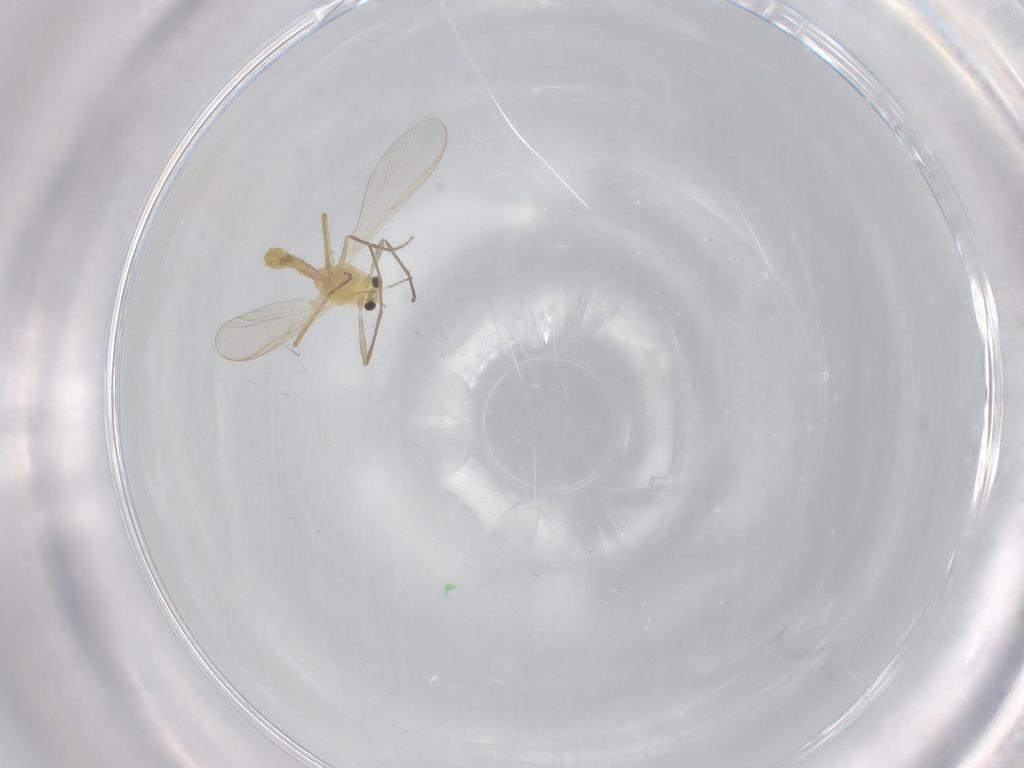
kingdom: Animalia
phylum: Arthropoda
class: Insecta
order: Diptera
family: Chironomidae
